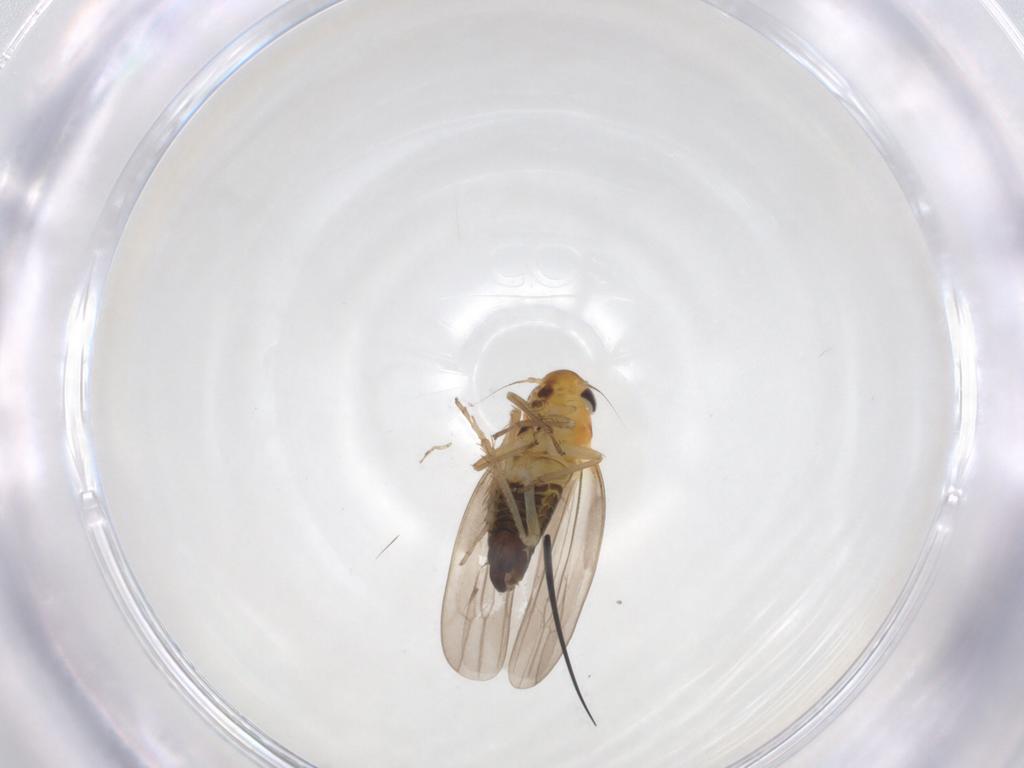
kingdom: Animalia
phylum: Arthropoda
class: Insecta
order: Hemiptera
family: Cicadellidae
